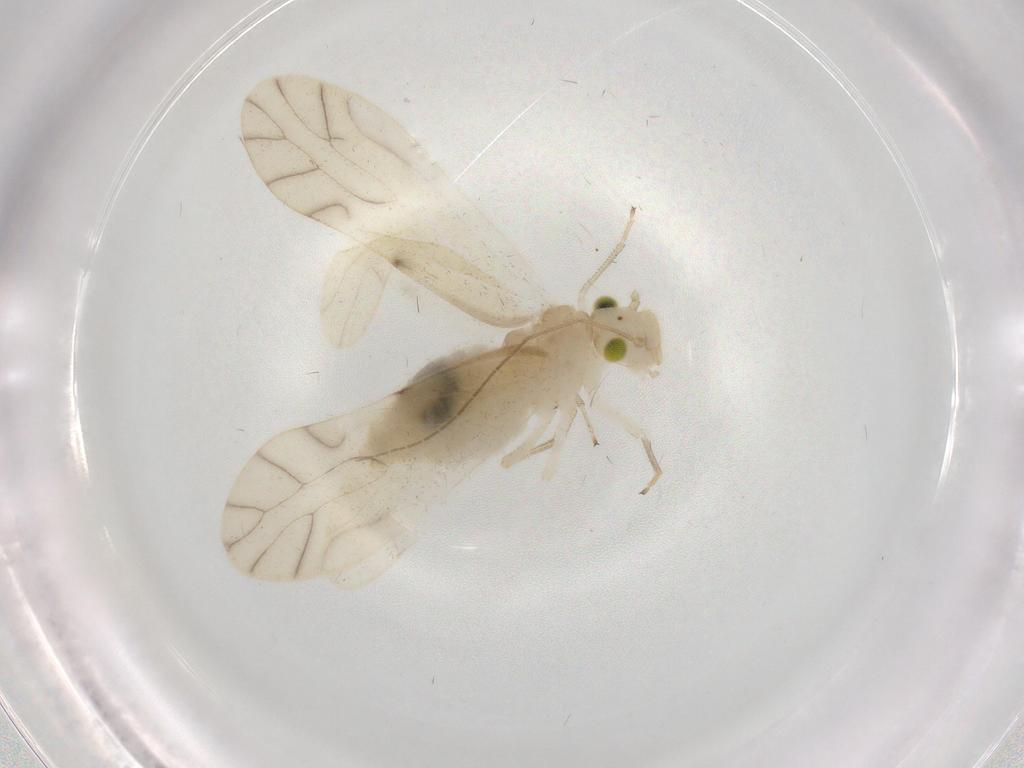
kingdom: Animalia
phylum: Arthropoda
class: Insecta
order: Psocodea
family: Caeciliusidae
